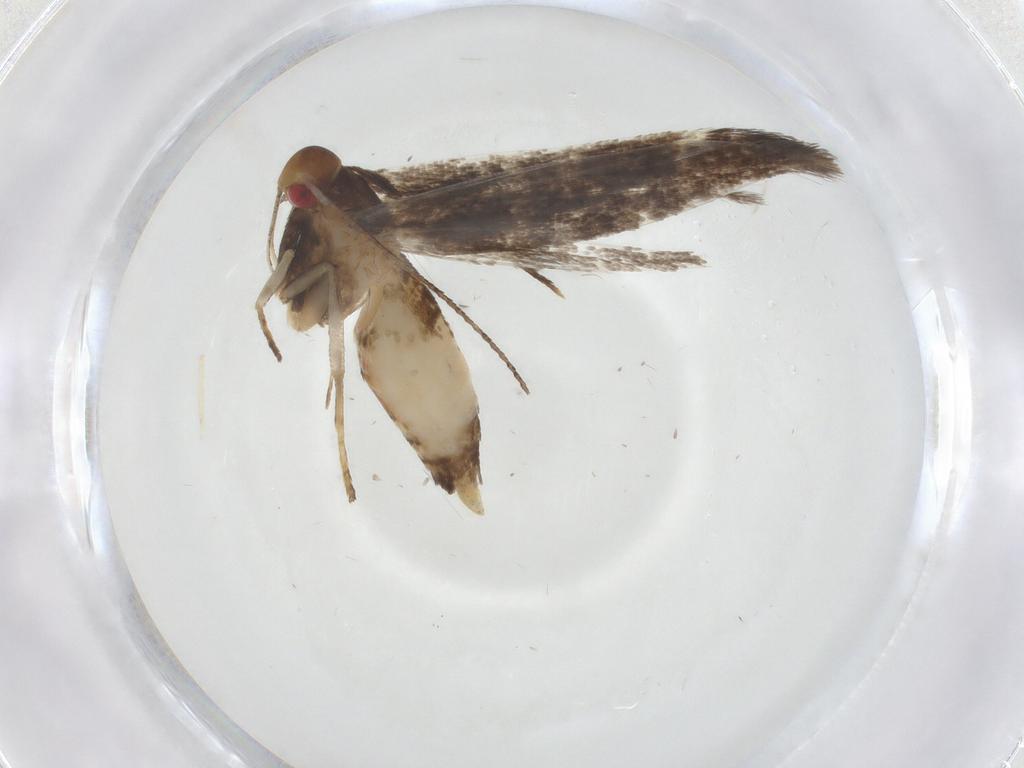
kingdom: Animalia
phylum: Arthropoda
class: Insecta
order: Lepidoptera
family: Gelechiidae
